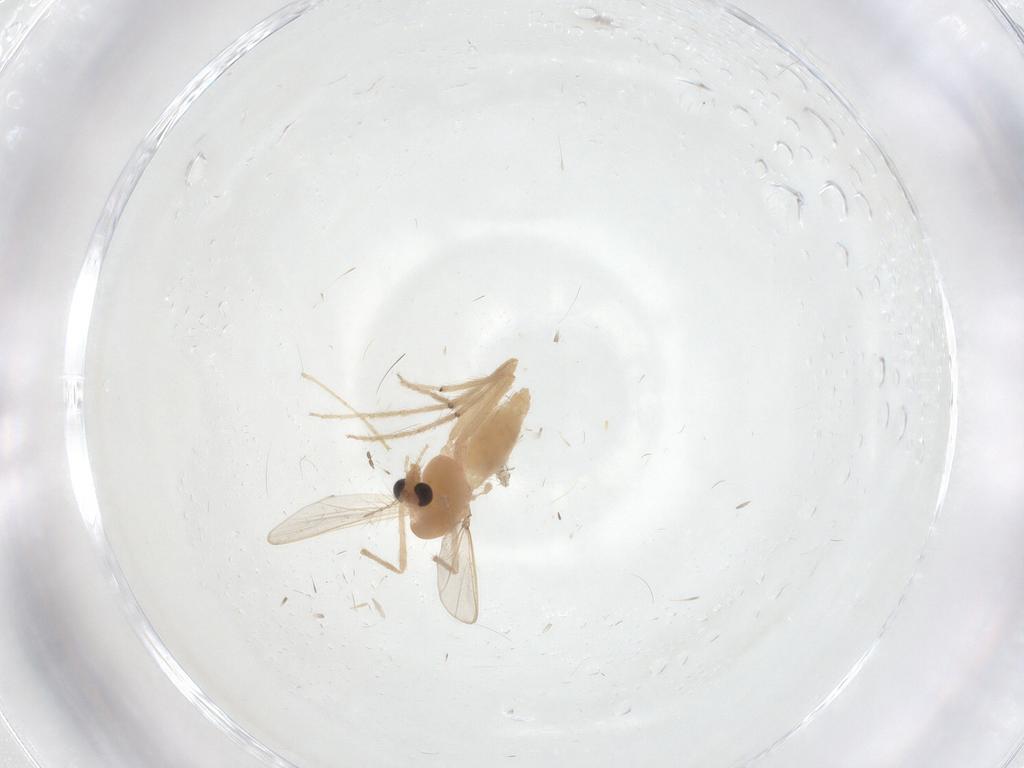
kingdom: Animalia
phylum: Arthropoda
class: Insecta
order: Diptera
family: Chironomidae
